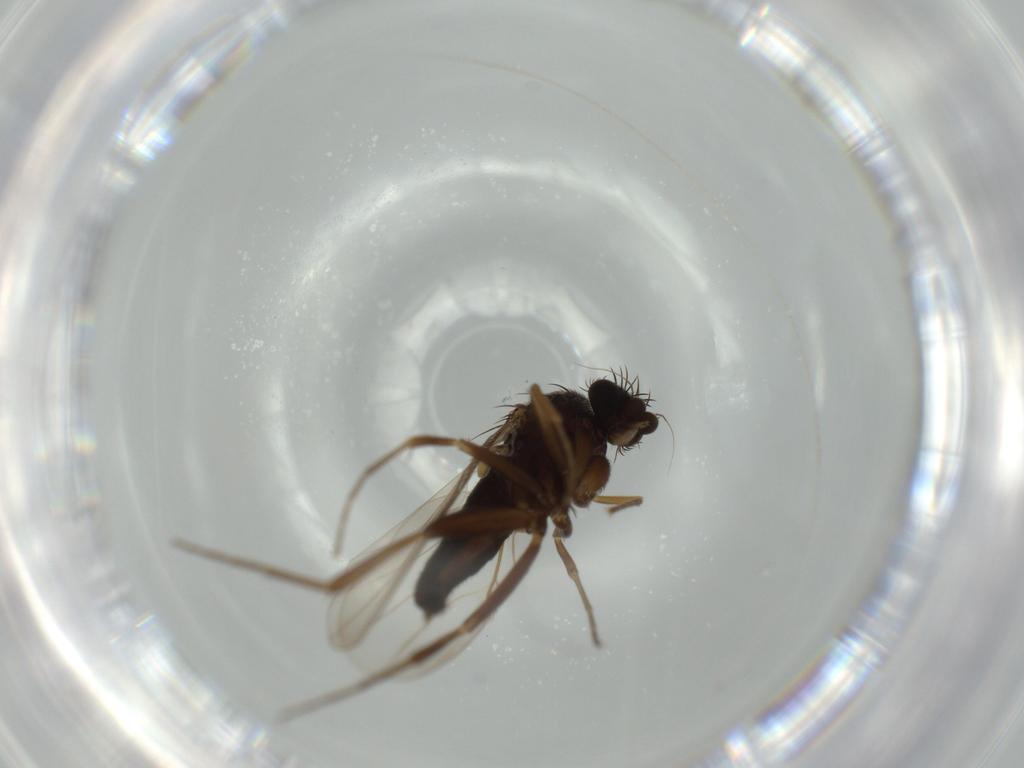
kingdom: Animalia
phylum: Arthropoda
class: Insecta
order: Diptera
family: Phoridae
